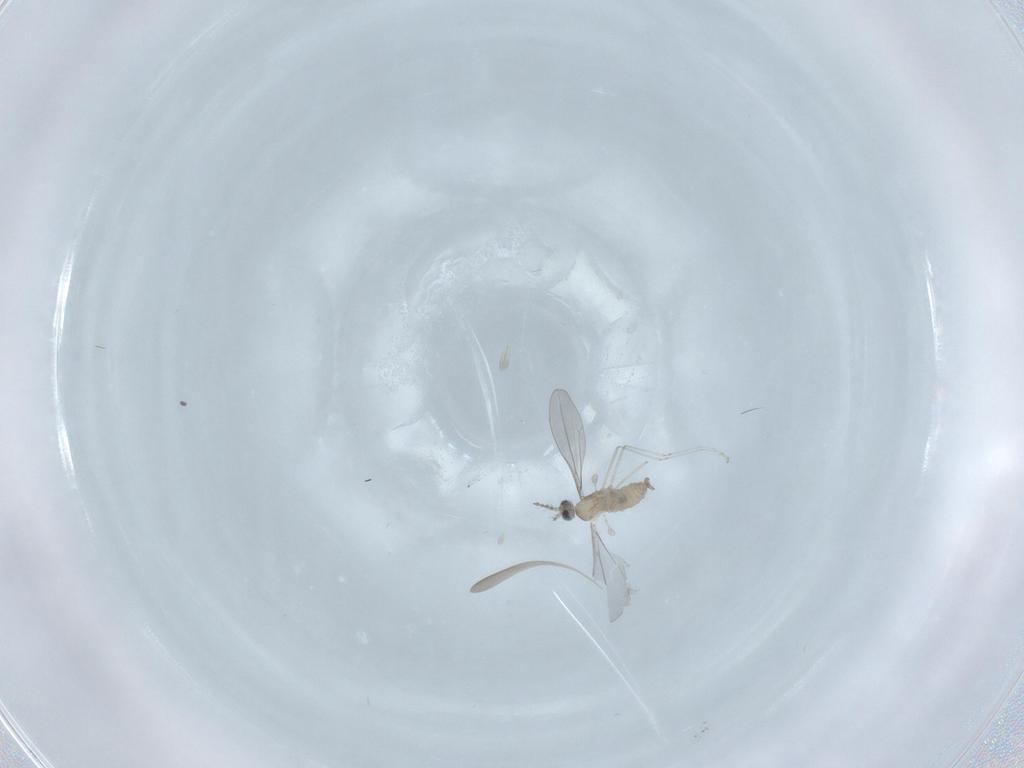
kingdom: Animalia
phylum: Arthropoda
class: Insecta
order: Diptera
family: Cecidomyiidae
